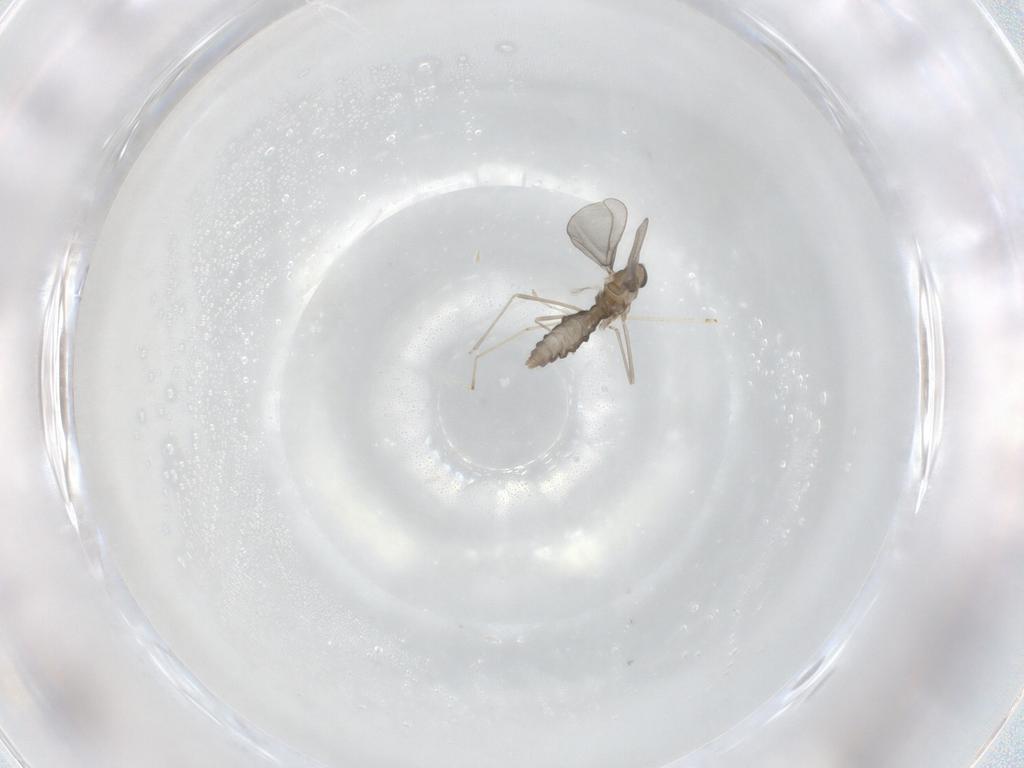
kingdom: Animalia
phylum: Arthropoda
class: Insecta
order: Diptera
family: Cecidomyiidae
